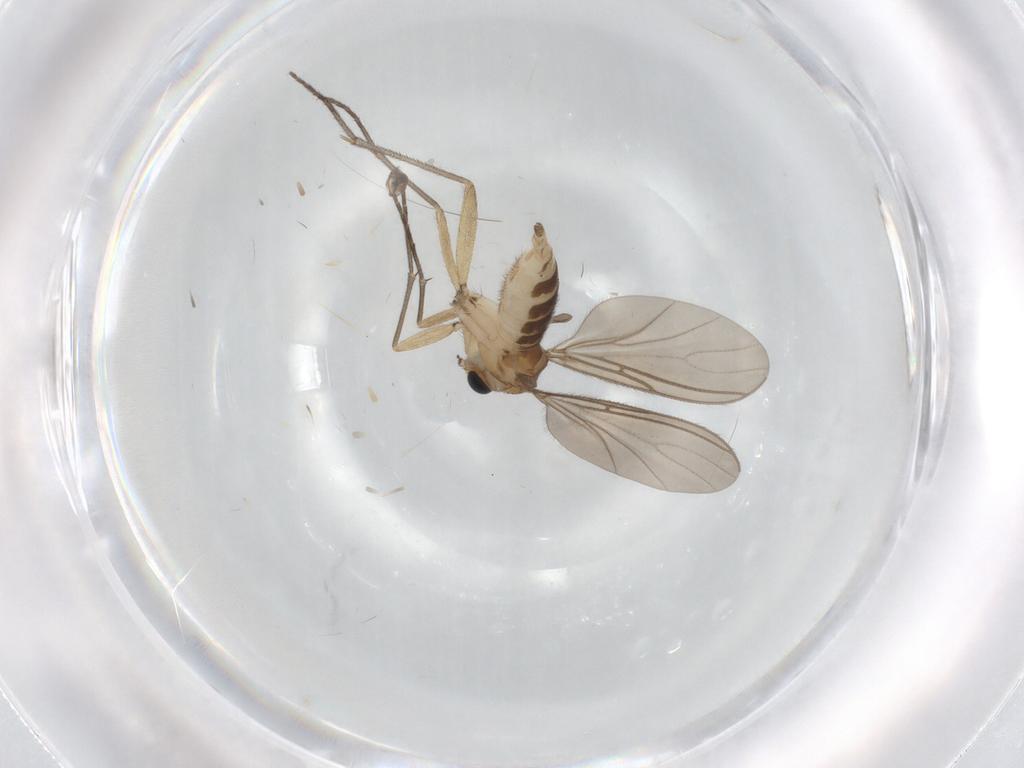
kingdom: Animalia
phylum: Arthropoda
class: Insecta
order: Diptera
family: Sciaridae
